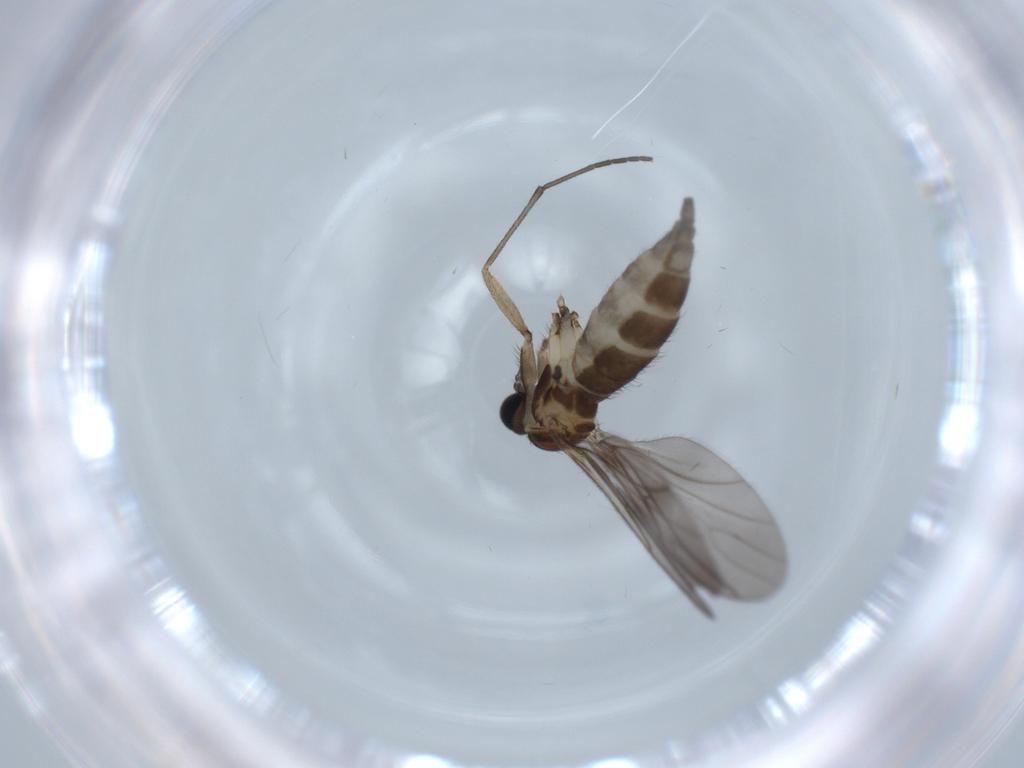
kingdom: Animalia
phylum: Arthropoda
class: Insecta
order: Diptera
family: Sciaridae
